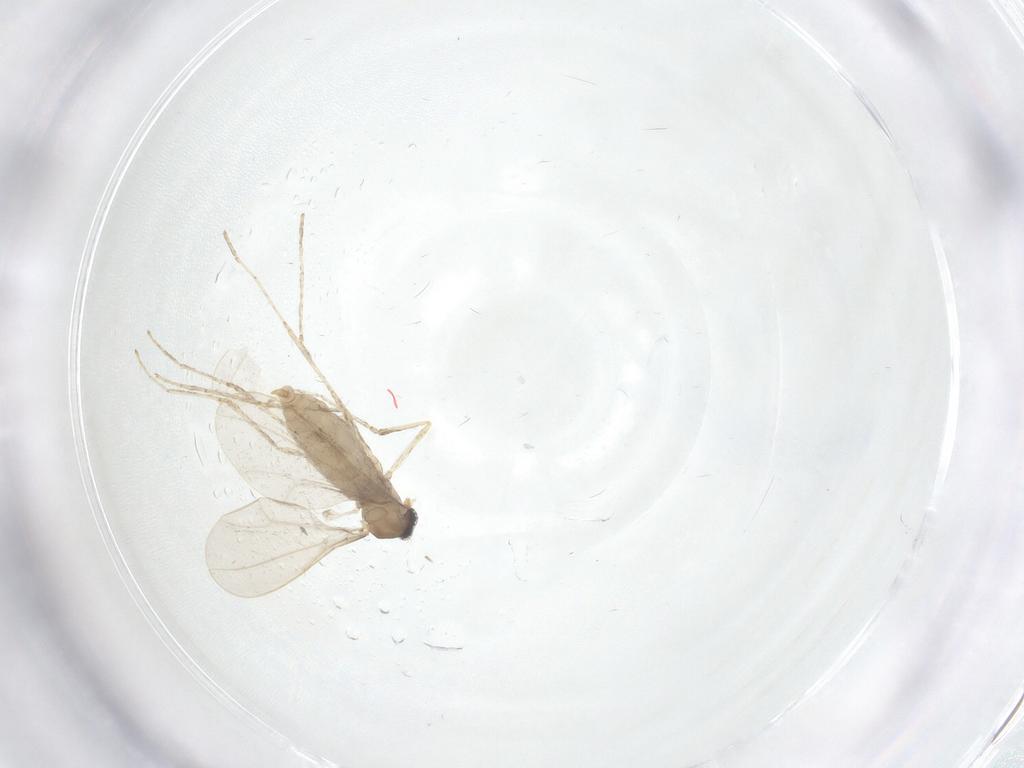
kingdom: Animalia
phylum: Arthropoda
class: Insecta
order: Diptera
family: Cecidomyiidae
